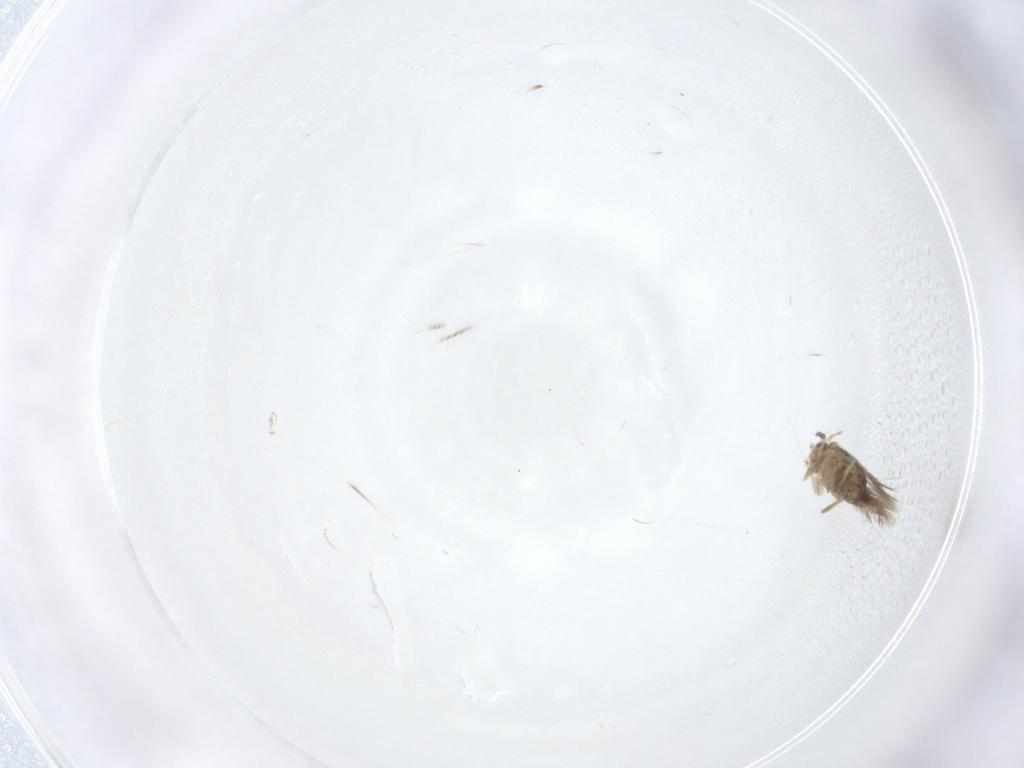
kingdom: Animalia
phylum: Arthropoda
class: Insecta
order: Lepidoptera
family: Nepticulidae
